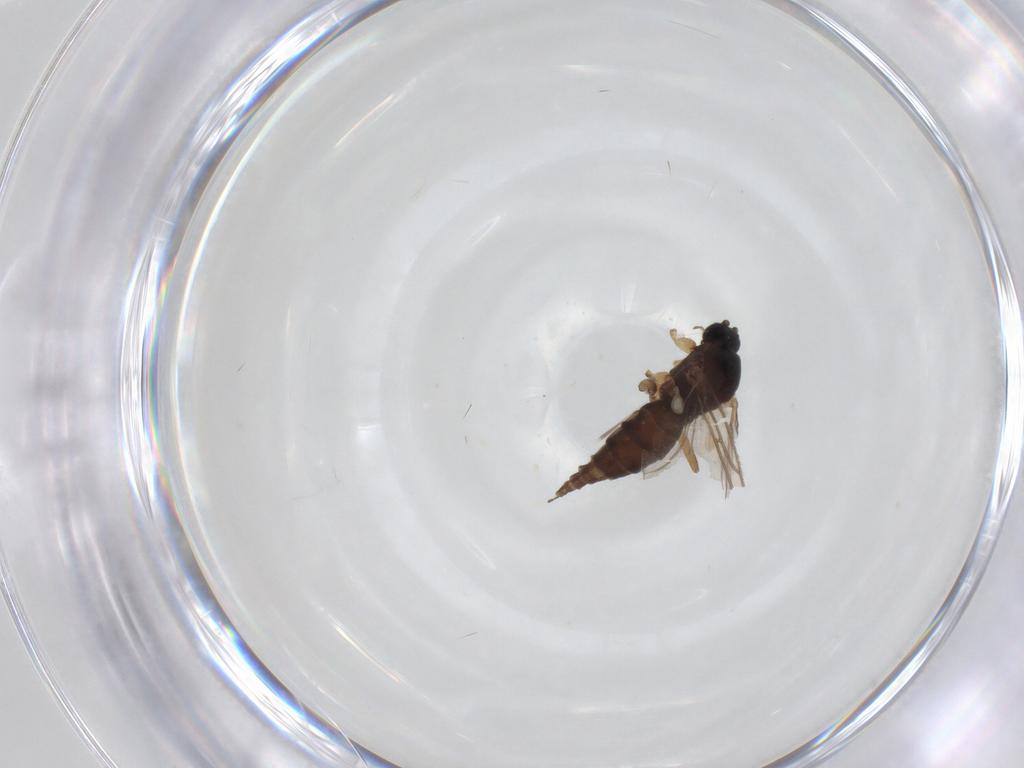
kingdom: Animalia
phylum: Arthropoda
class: Insecta
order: Diptera
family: Sciaridae
